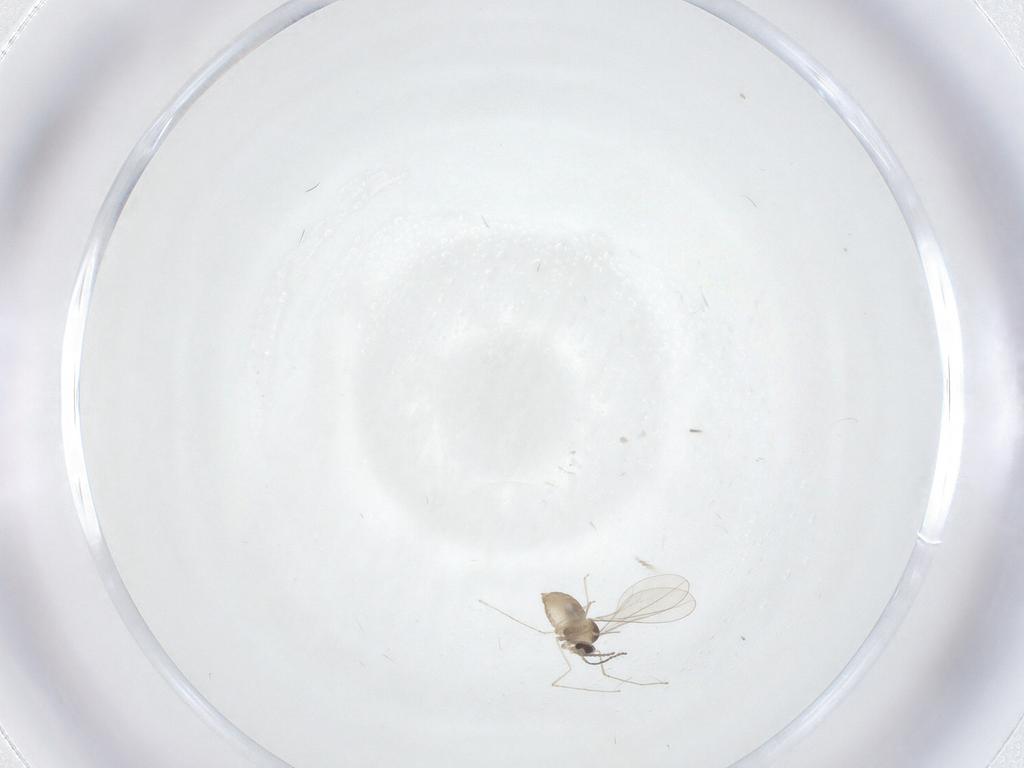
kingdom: Animalia
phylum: Arthropoda
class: Insecta
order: Diptera
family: Cecidomyiidae
